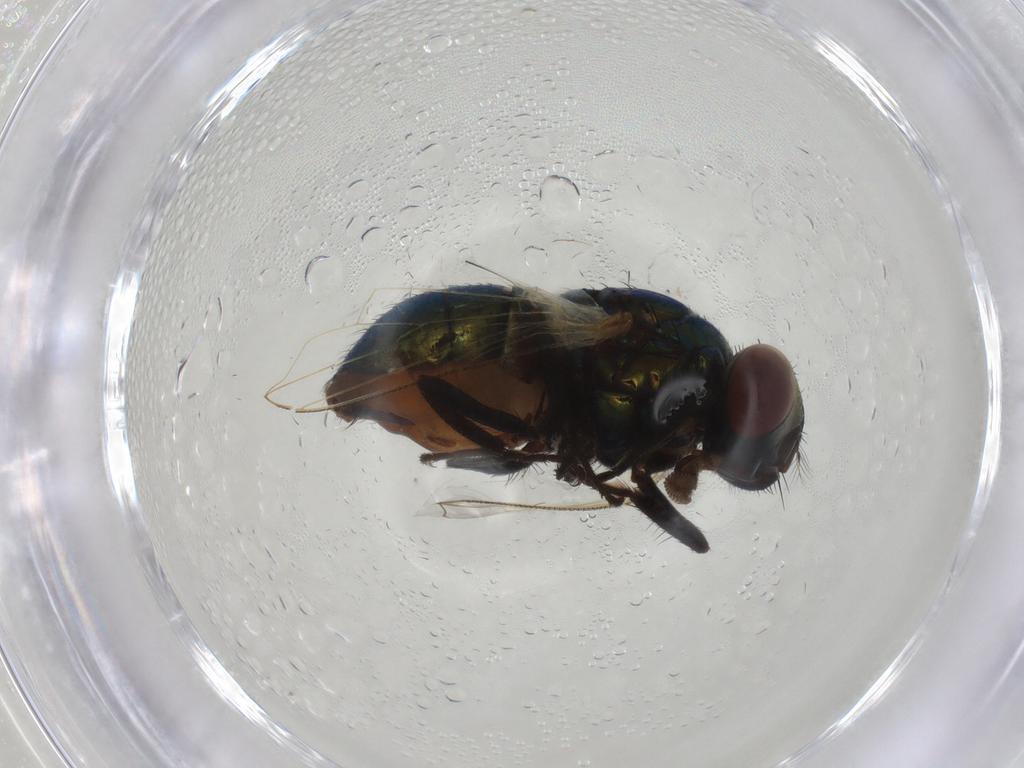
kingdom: Animalia
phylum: Arthropoda
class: Insecta
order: Diptera
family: Muscidae
